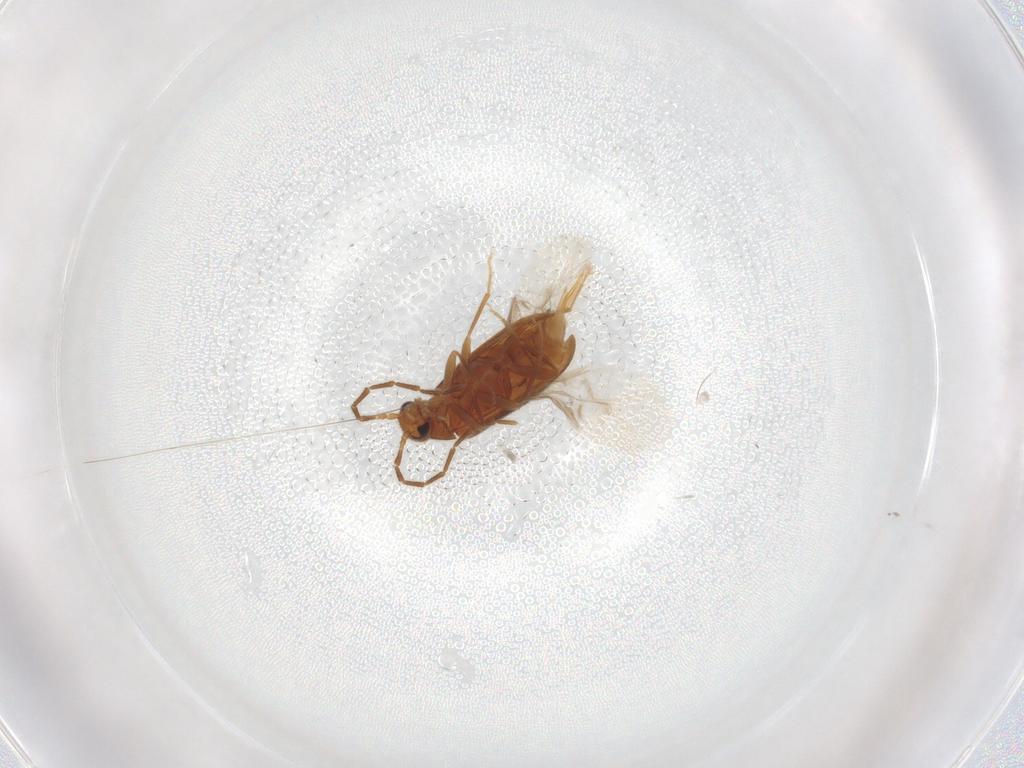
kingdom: Animalia
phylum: Arthropoda
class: Insecta
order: Coleoptera
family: Scraptiidae
